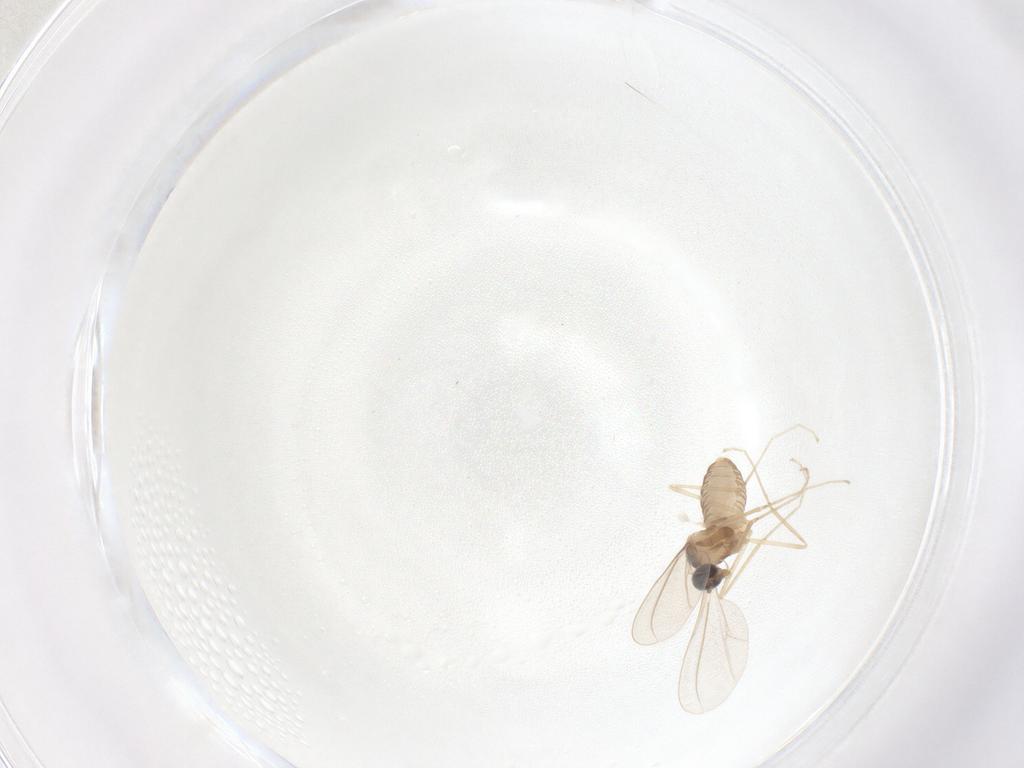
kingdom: Animalia
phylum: Arthropoda
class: Insecta
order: Diptera
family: Cecidomyiidae
